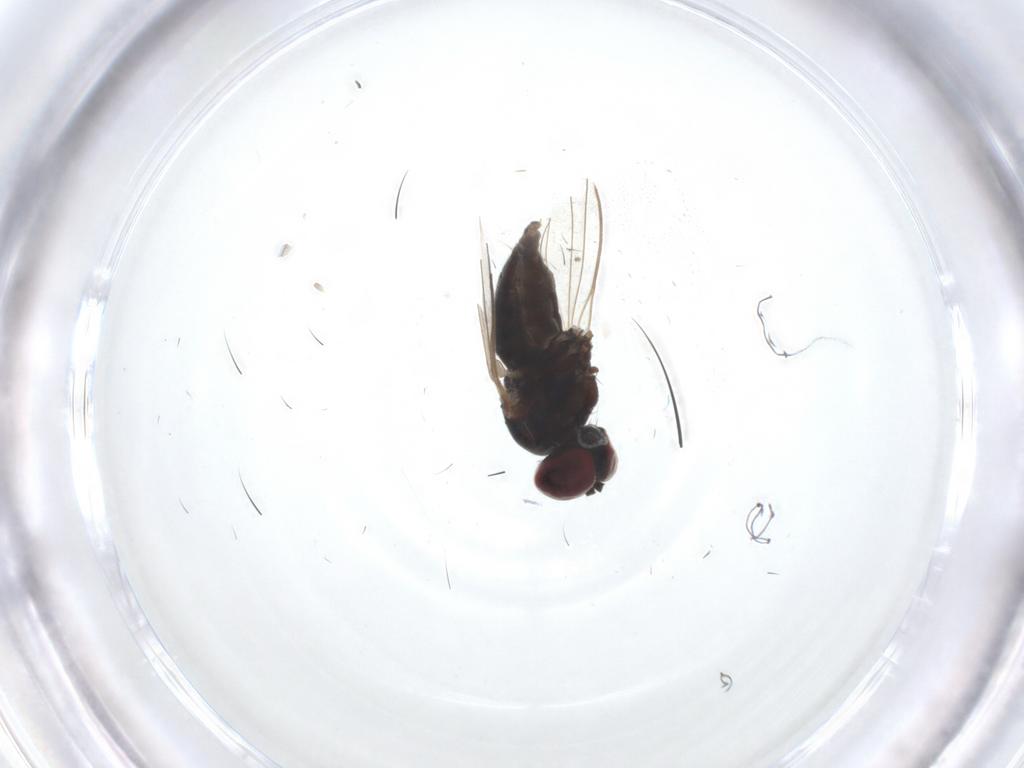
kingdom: Animalia
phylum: Arthropoda
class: Insecta
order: Diptera
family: Dolichopodidae
